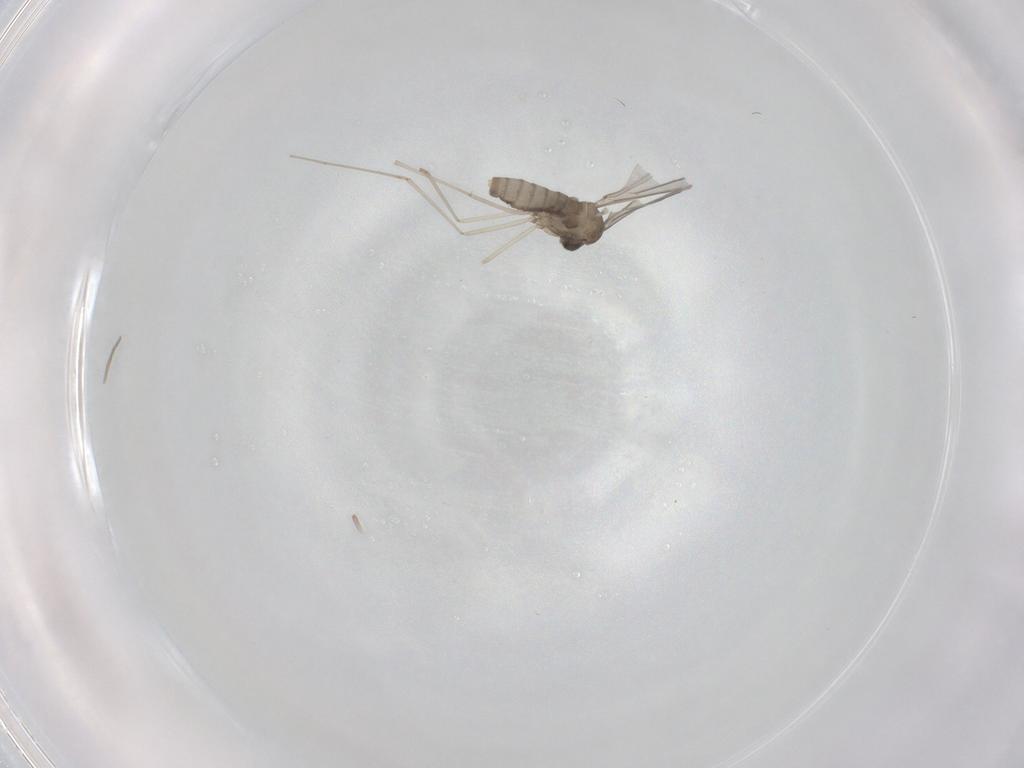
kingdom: Animalia
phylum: Arthropoda
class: Insecta
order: Diptera
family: Cecidomyiidae
